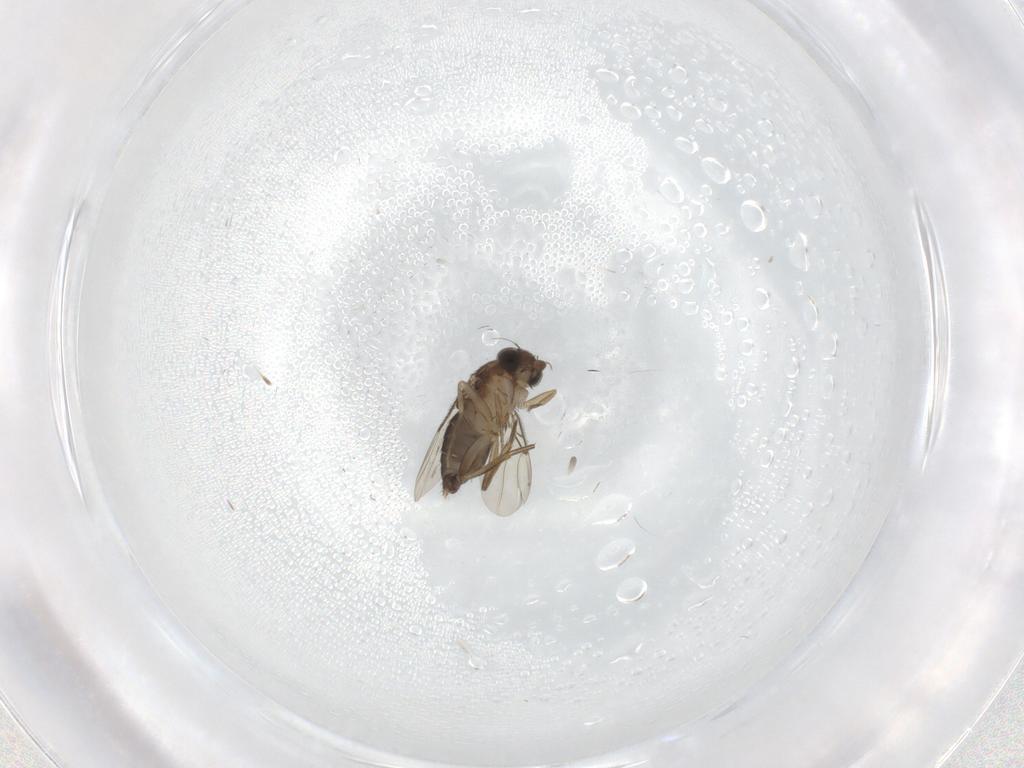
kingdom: Animalia
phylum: Arthropoda
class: Insecta
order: Diptera
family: Phoridae
